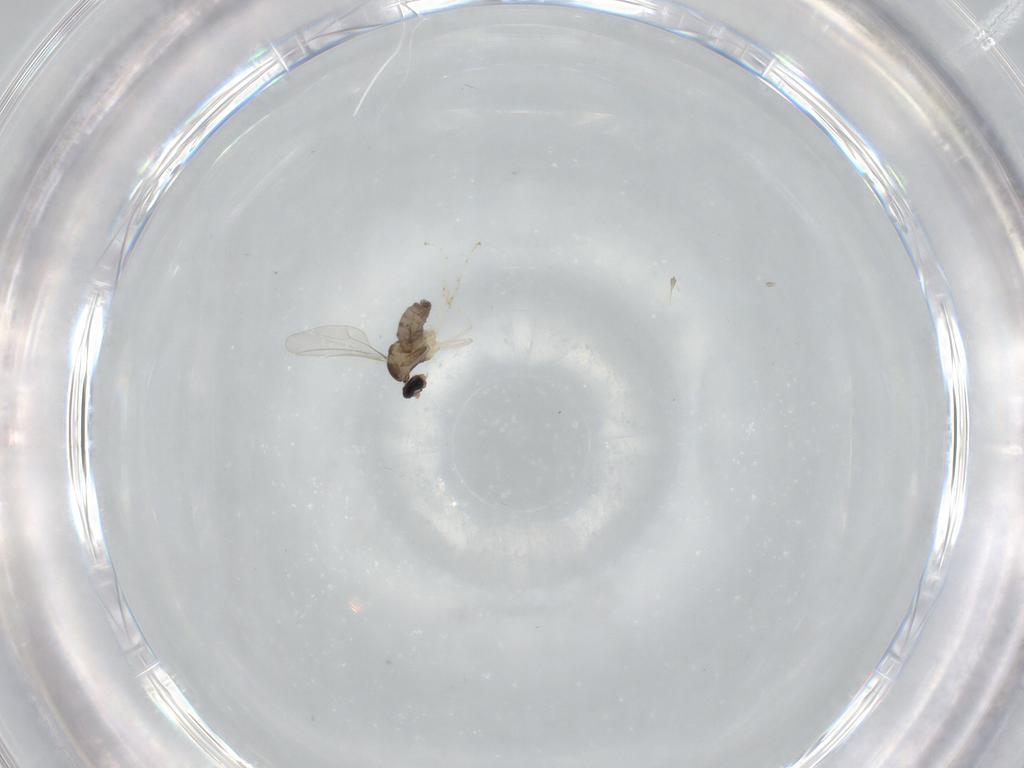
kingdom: Animalia
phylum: Arthropoda
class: Insecta
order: Diptera
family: Cecidomyiidae
